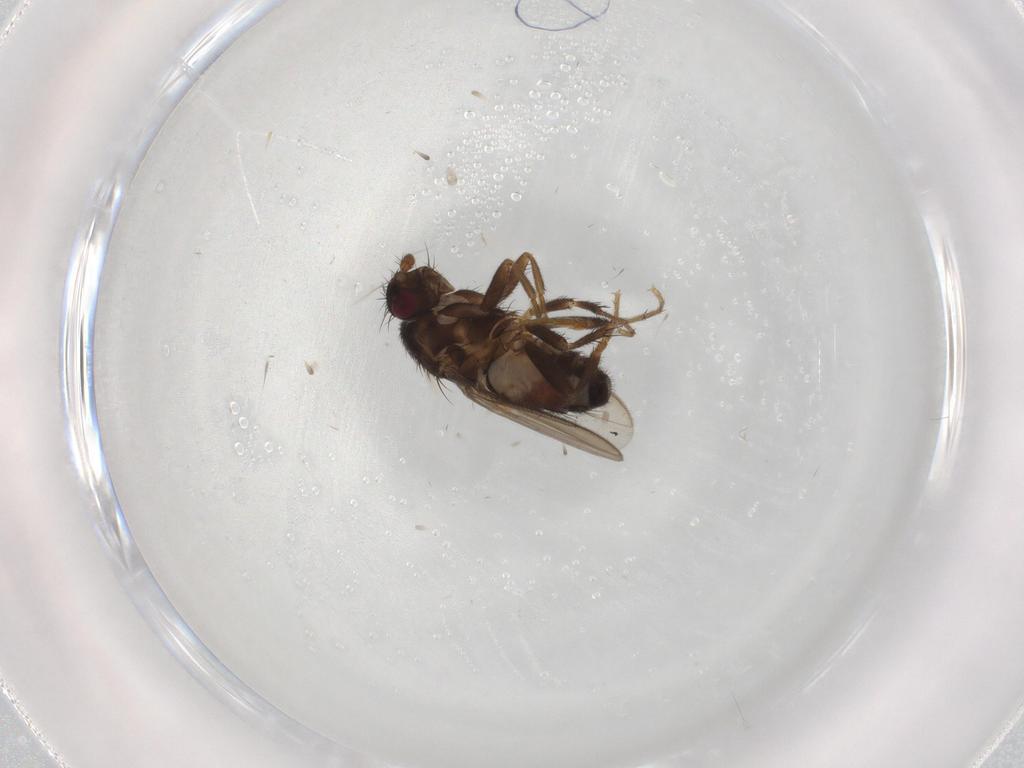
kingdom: Animalia
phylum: Arthropoda
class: Insecta
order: Diptera
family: Sphaeroceridae
